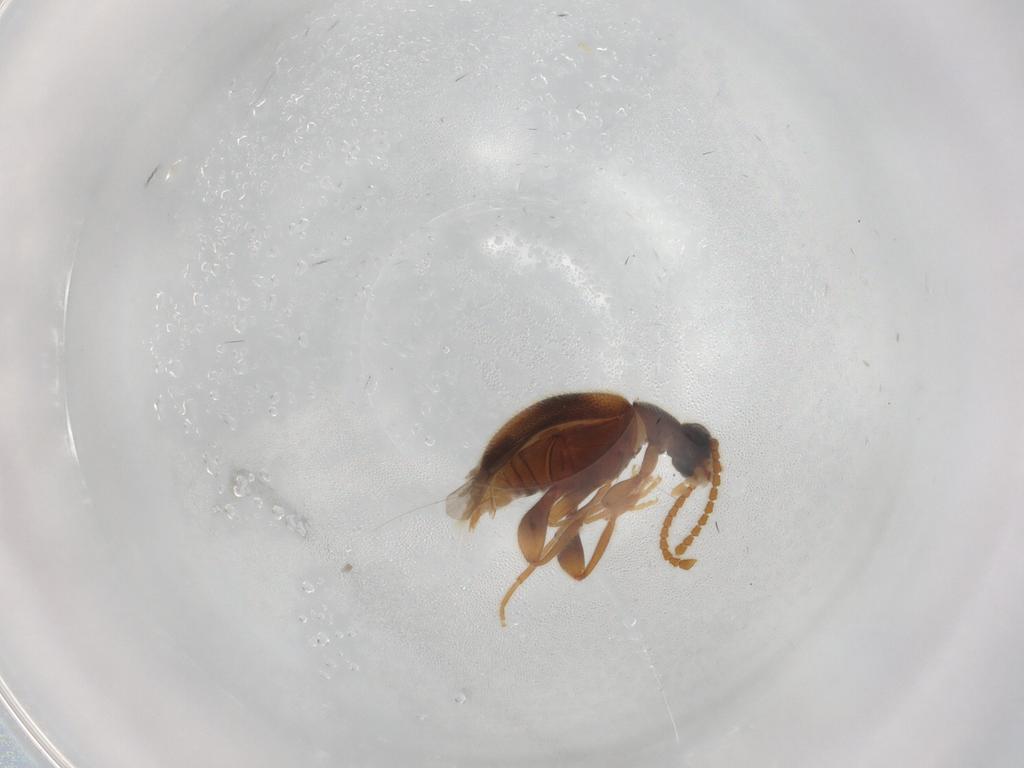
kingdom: Animalia
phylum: Arthropoda
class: Insecta
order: Coleoptera
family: Aderidae
